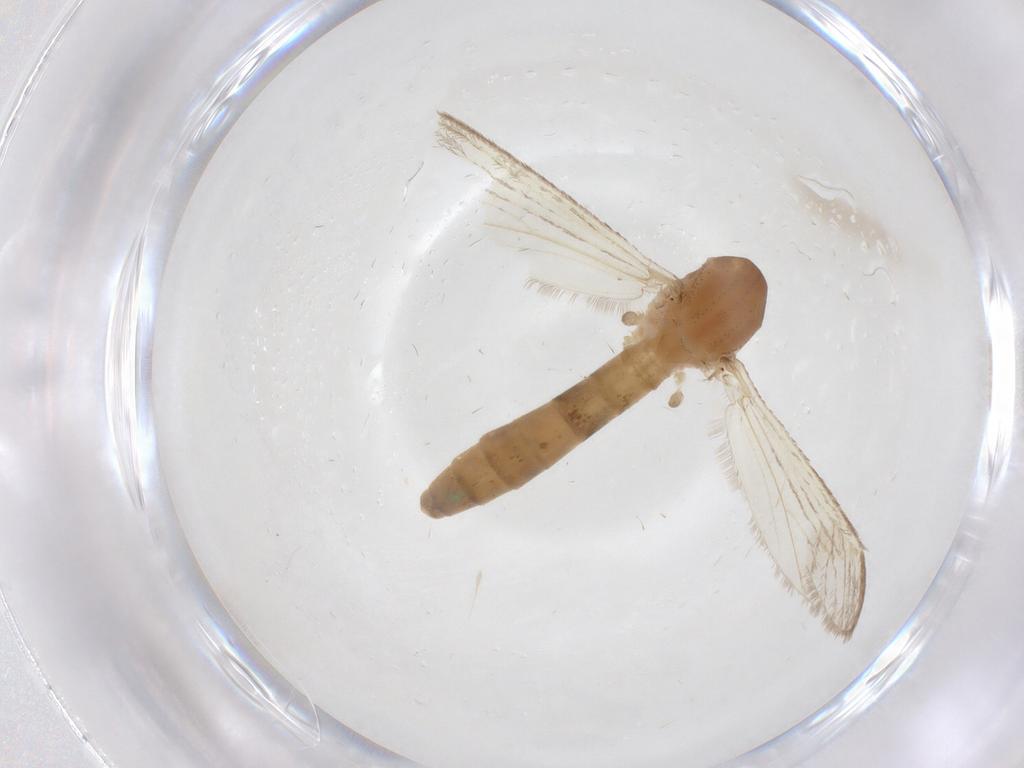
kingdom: Animalia
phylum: Arthropoda
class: Insecta
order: Diptera
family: Culicidae
